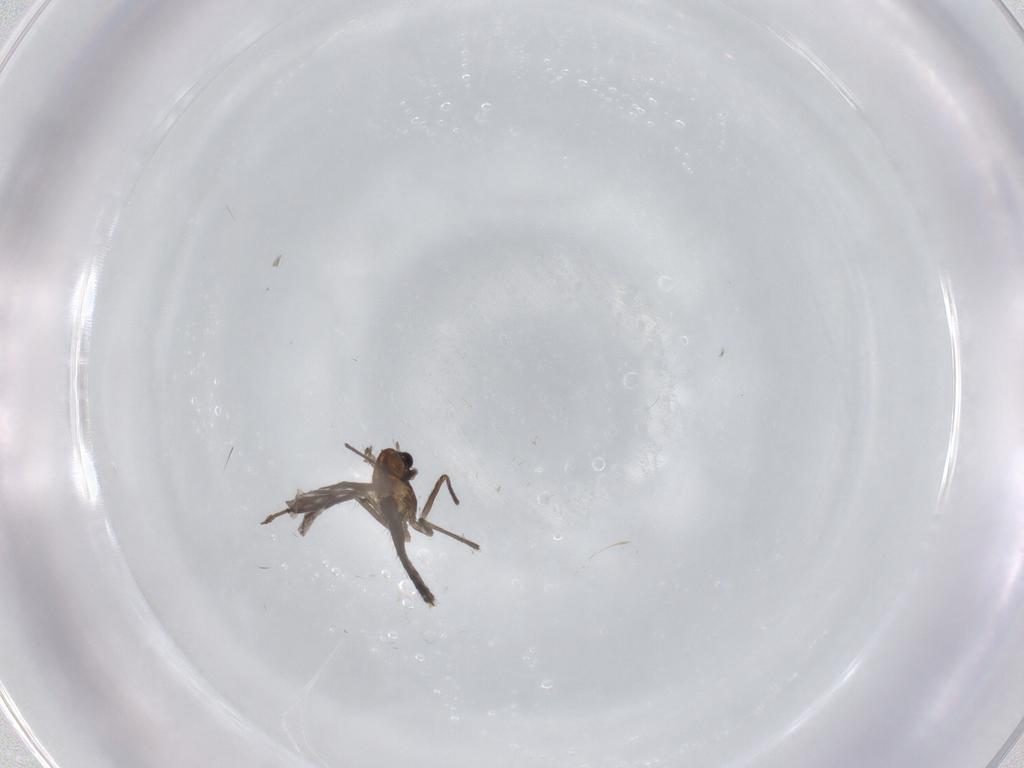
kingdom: Animalia
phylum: Arthropoda
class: Insecta
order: Diptera
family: Chironomidae
